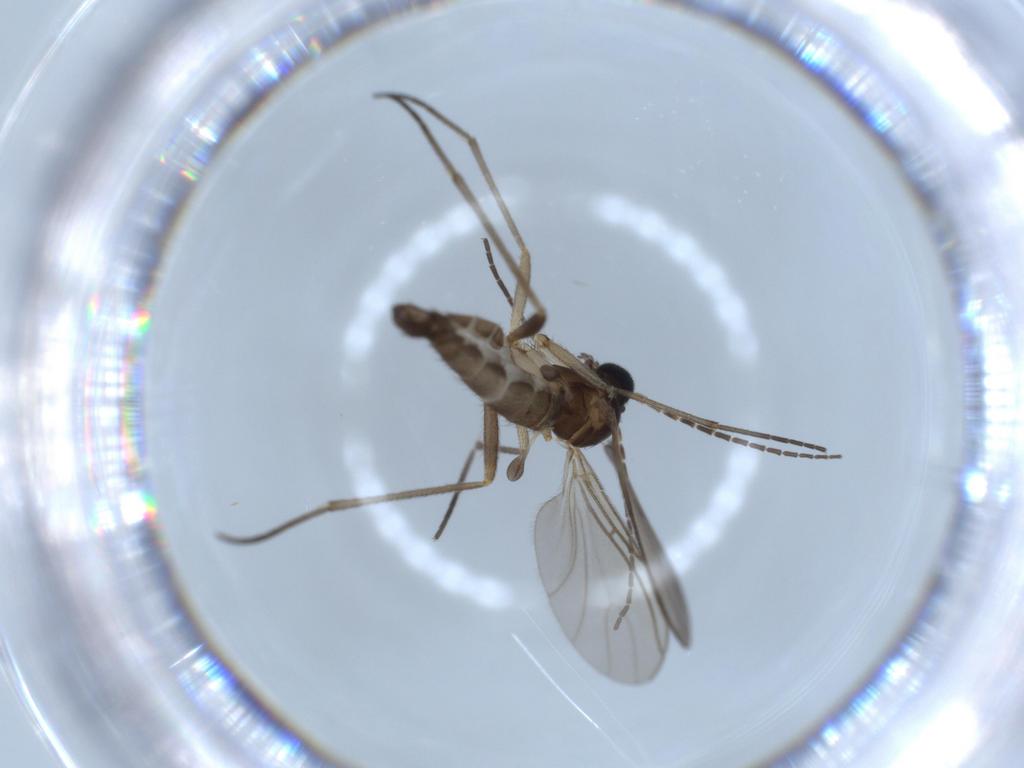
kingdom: Animalia
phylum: Arthropoda
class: Insecta
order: Diptera
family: Sciaridae
